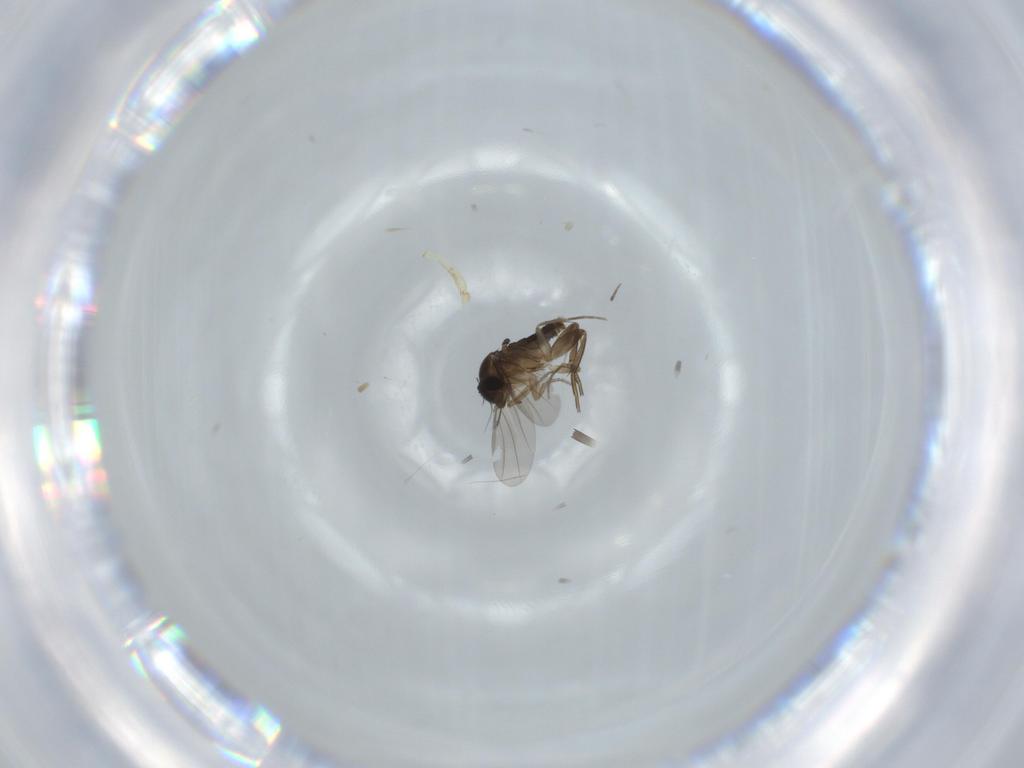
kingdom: Animalia
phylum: Arthropoda
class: Insecta
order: Diptera
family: Phoridae
